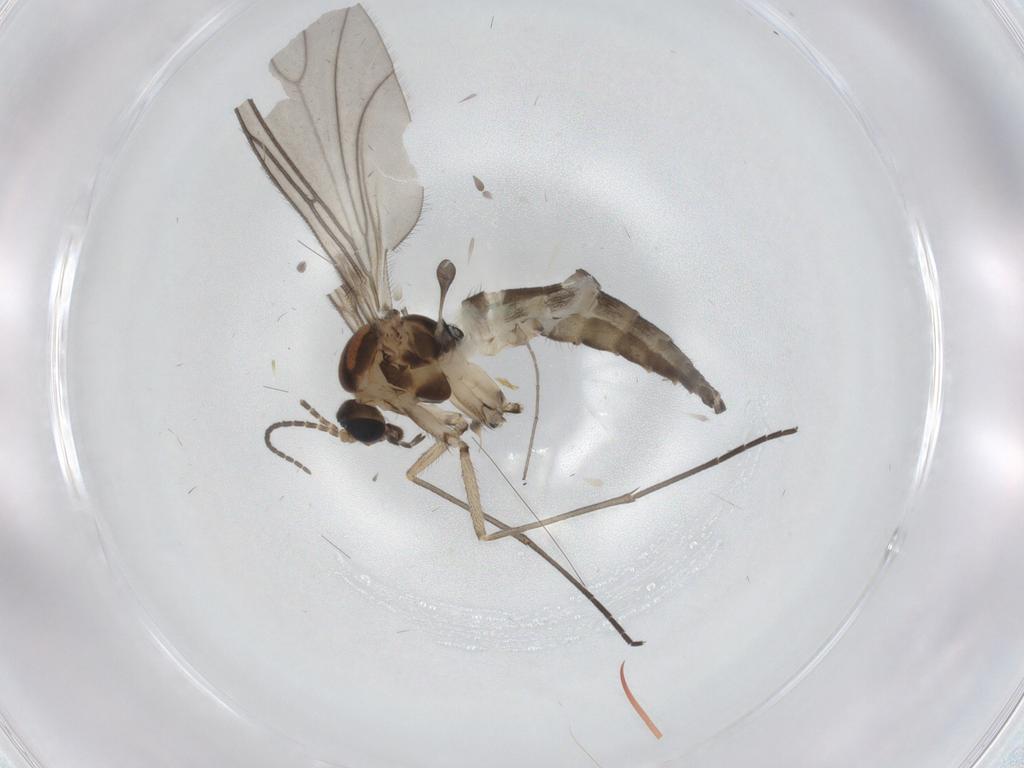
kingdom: Animalia
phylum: Arthropoda
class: Insecta
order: Diptera
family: Sciaridae
